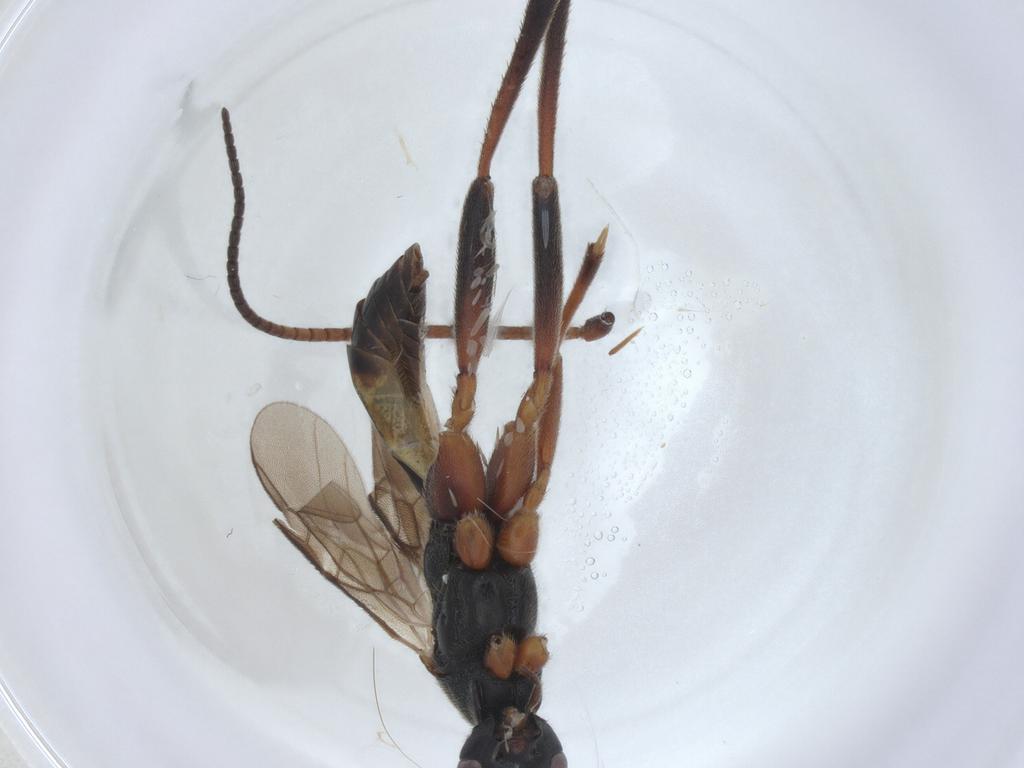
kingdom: Animalia
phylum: Arthropoda
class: Insecta
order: Hymenoptera
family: Braconidae
